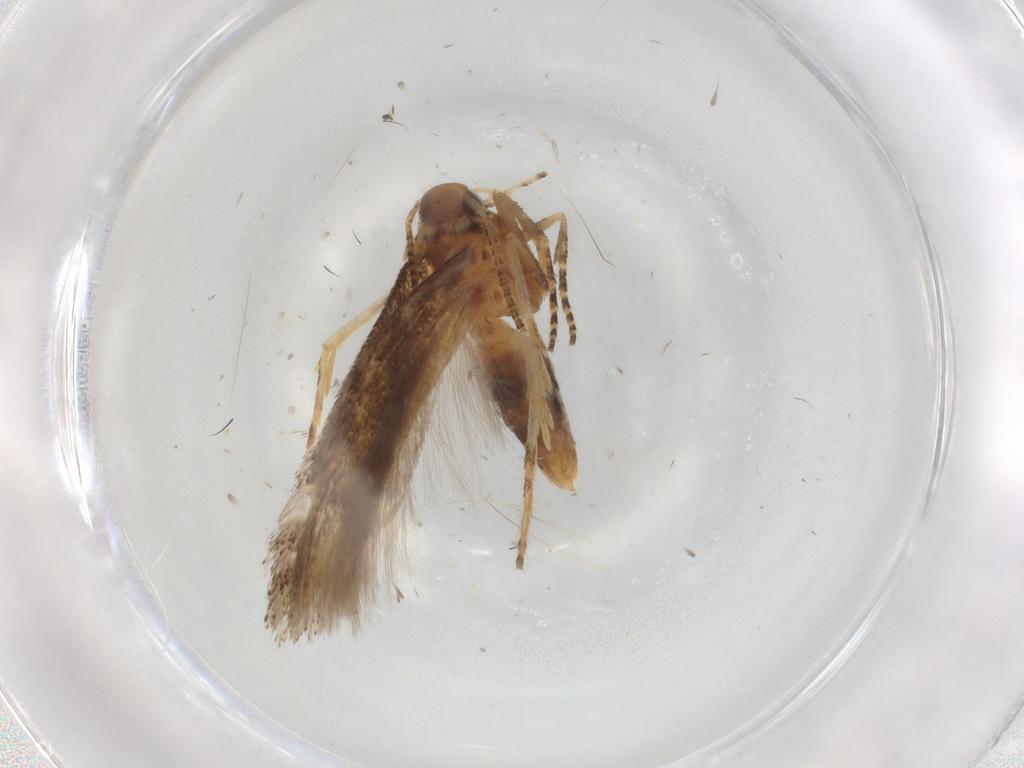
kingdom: Animalia
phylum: Arthropoda
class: Insecta
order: Lepidoptera
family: Gelechiidae
